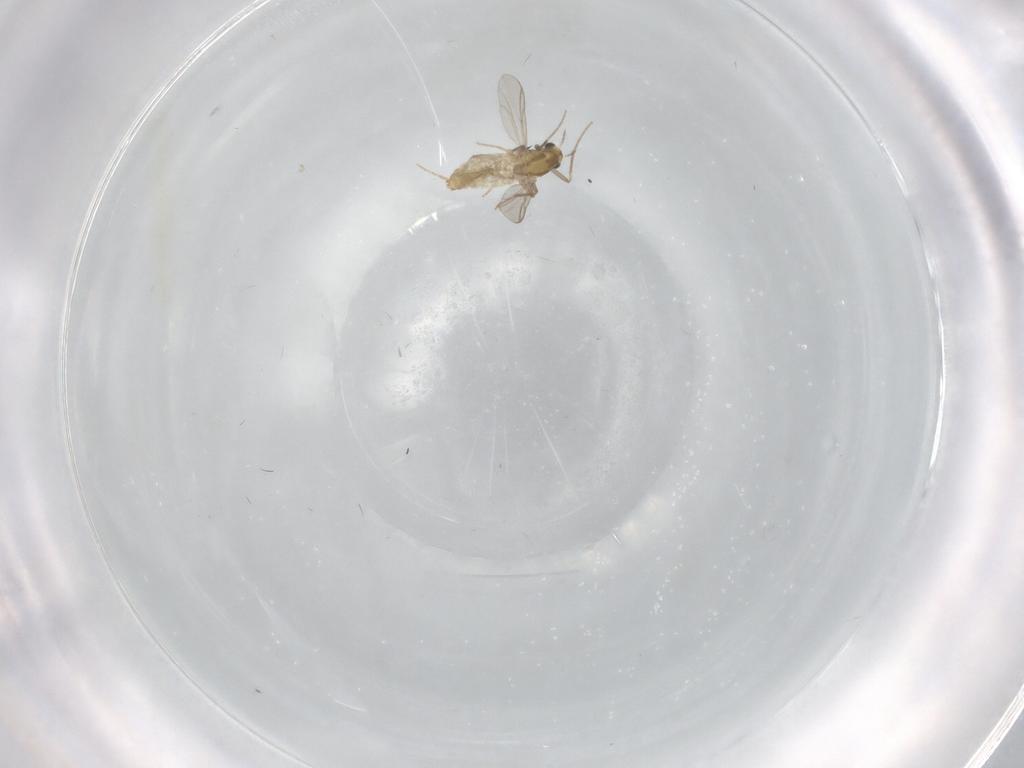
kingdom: Animalia
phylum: Arthropoda
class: Insecta
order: Diptera
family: Chironomidae
